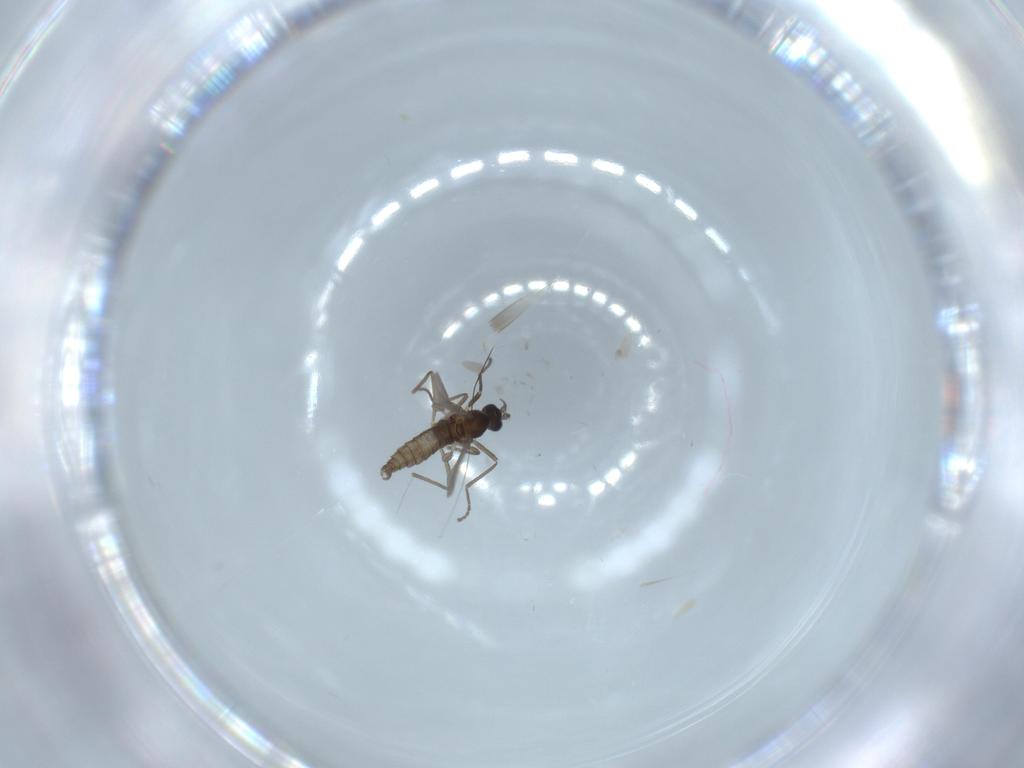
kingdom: Animalia
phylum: Arthropoda
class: Insecta
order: Diptera
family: Cecidomyiidae
